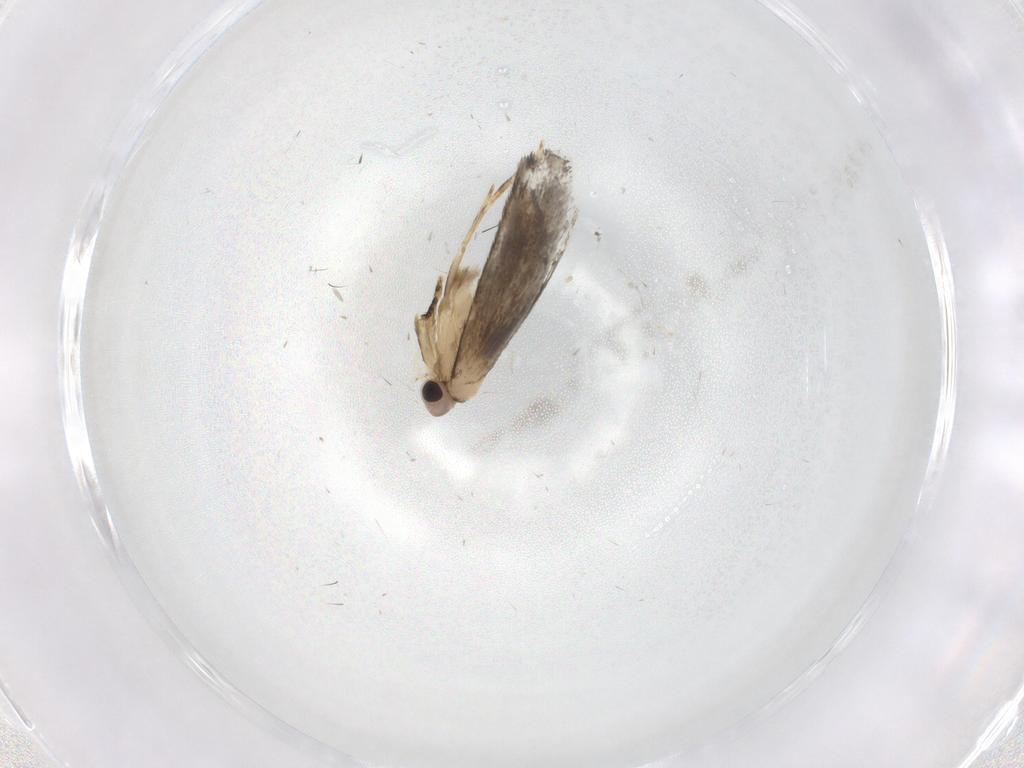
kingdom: Animalia
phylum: Arthropoda
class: Insecta
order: Lepidoptera
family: Tineidae
